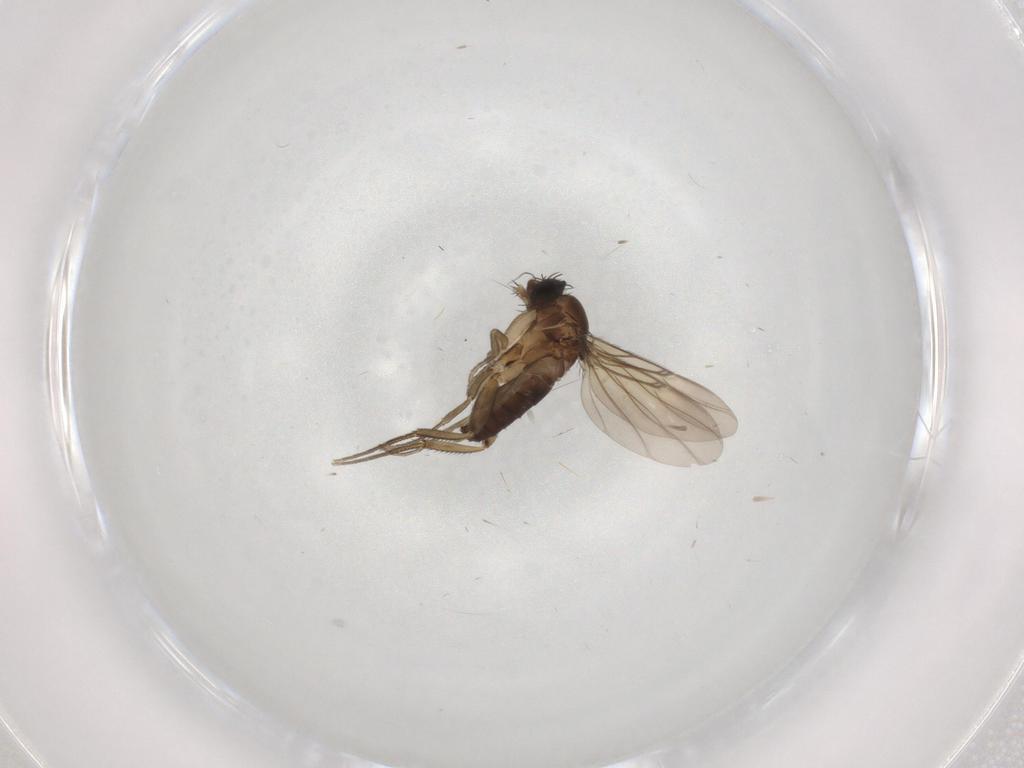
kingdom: Animalia
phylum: Arthropoda
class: Insecta
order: Diptera
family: Phoridae
